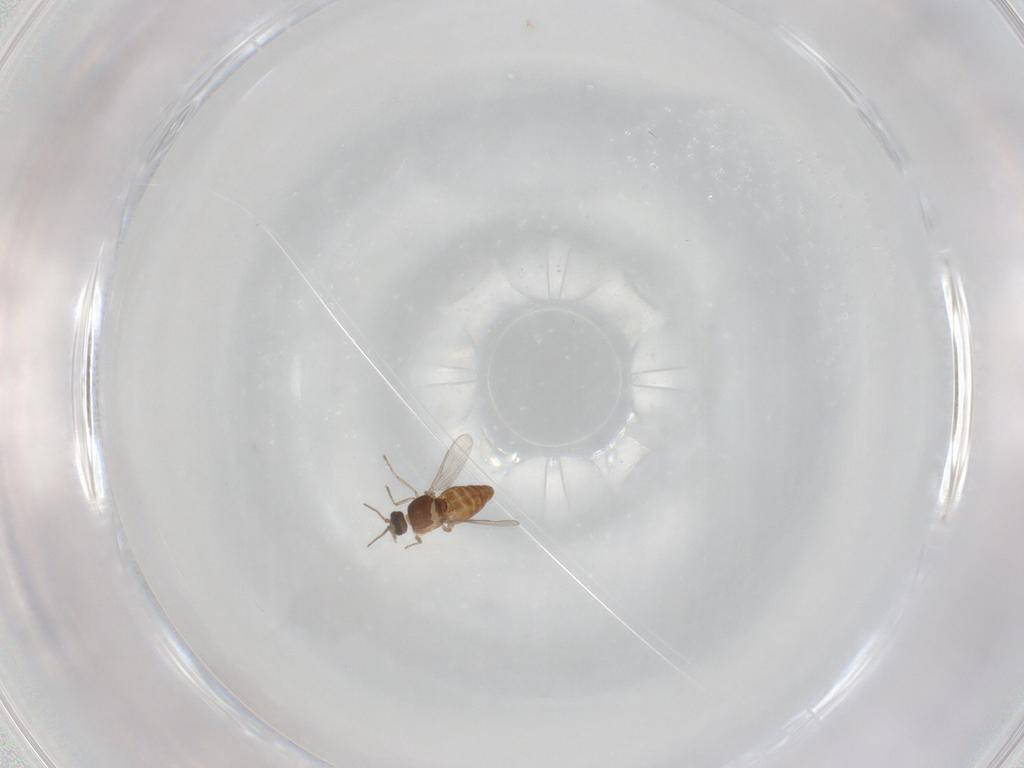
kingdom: Animalia
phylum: Arthropoda
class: Insecta
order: Diptera
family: Ceratopogonidae
